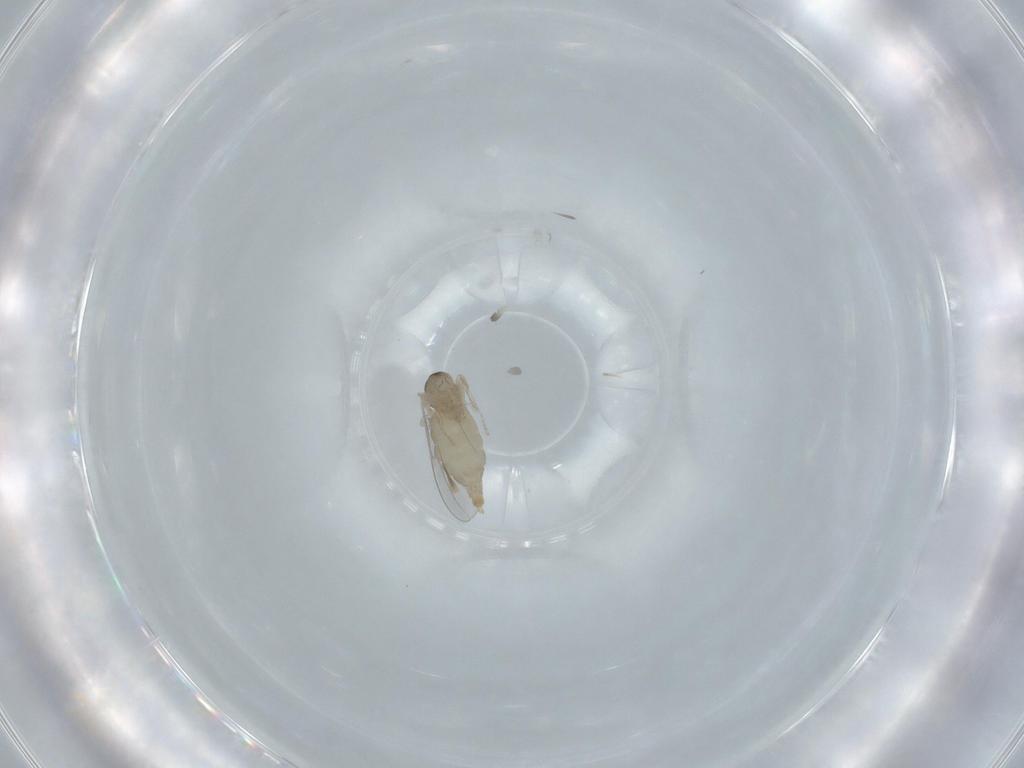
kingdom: Animalia
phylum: Arthropoda
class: Insecta
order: Diptera
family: Cecidomyiidae
